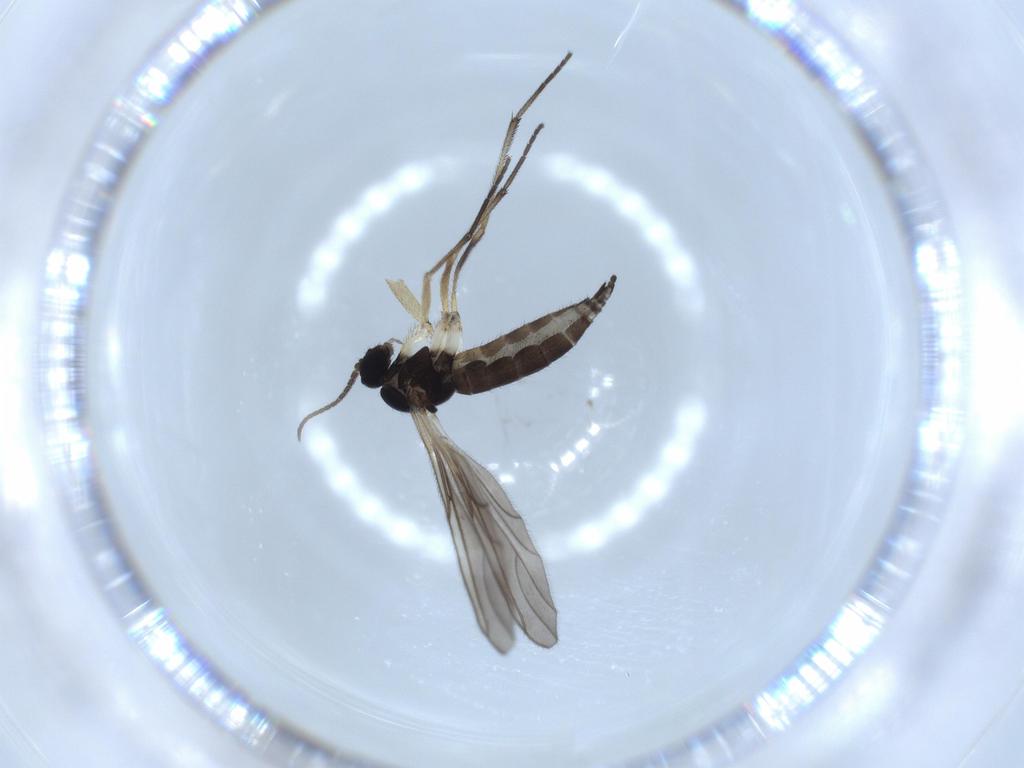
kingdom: Animalia
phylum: Arthropoda
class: Insecta
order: Diptera
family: Sciaridae
